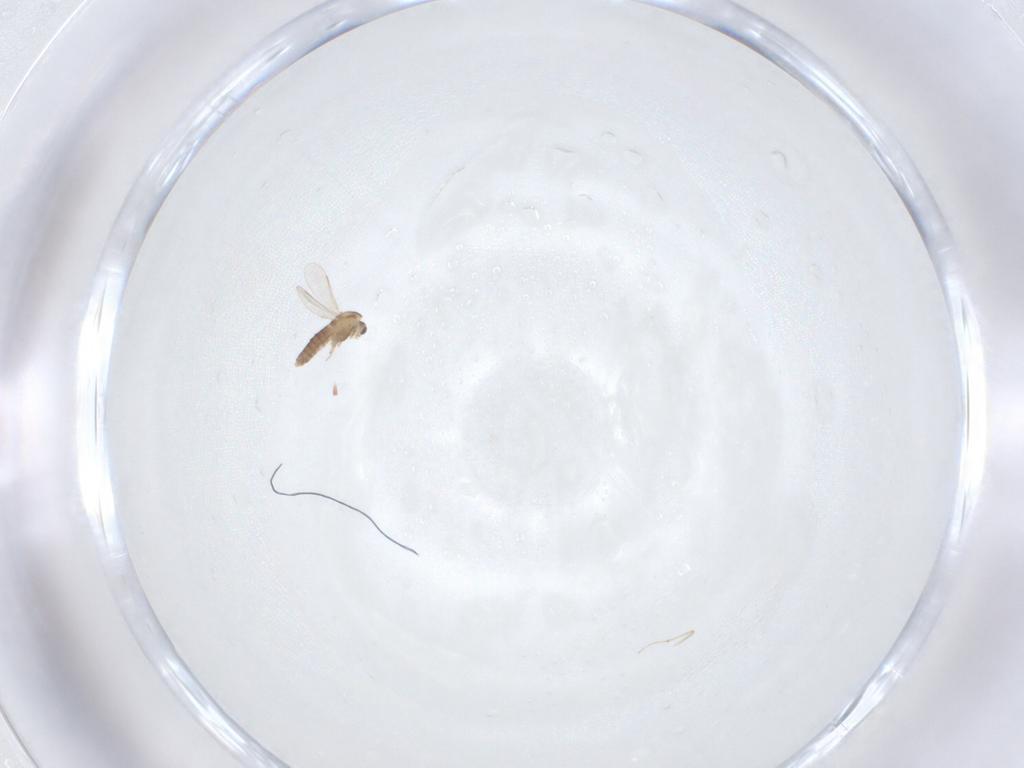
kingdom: Animalia
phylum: Arthropoda
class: Insecta
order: Diptera
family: Chironomidae
